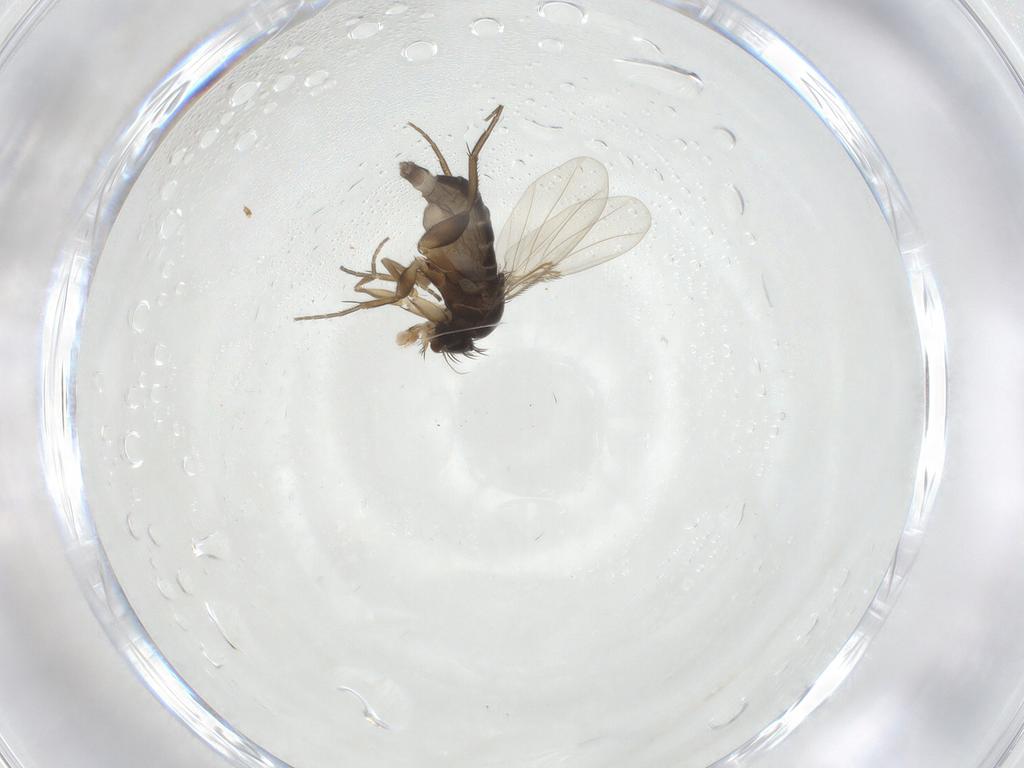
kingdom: Animalia
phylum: Arthropoda
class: Insecta
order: Diptera
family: Phoridae
